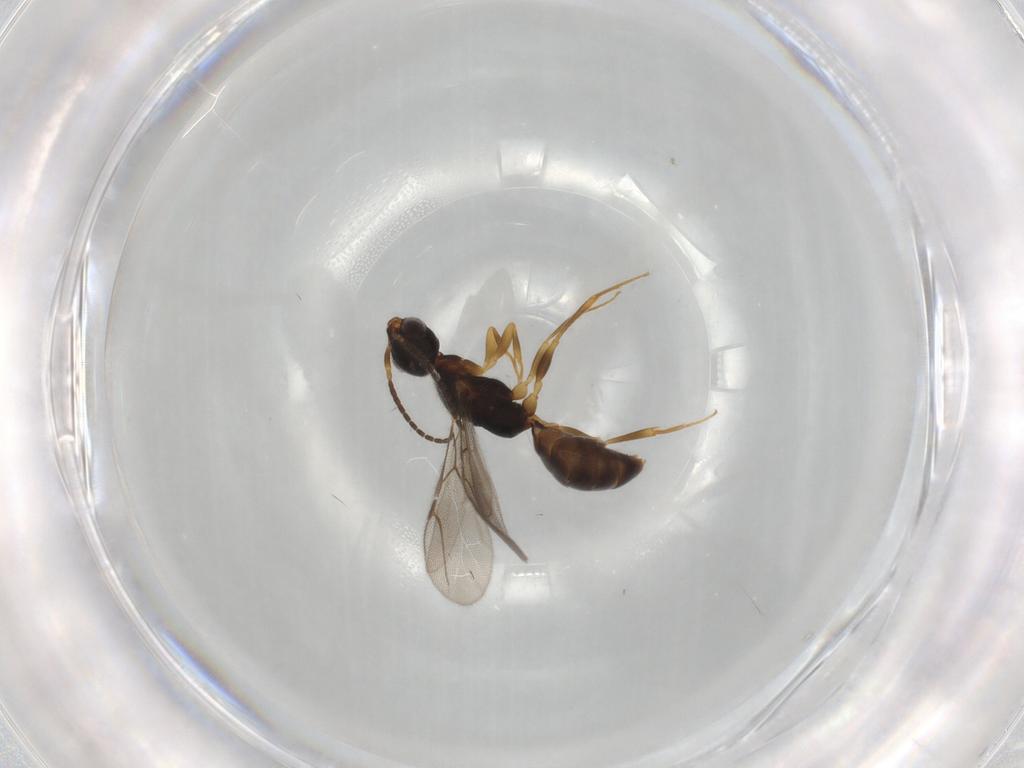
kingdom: Animalia
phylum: Arthropoda
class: Insecta
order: Hymenoptera
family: Bethylidae
